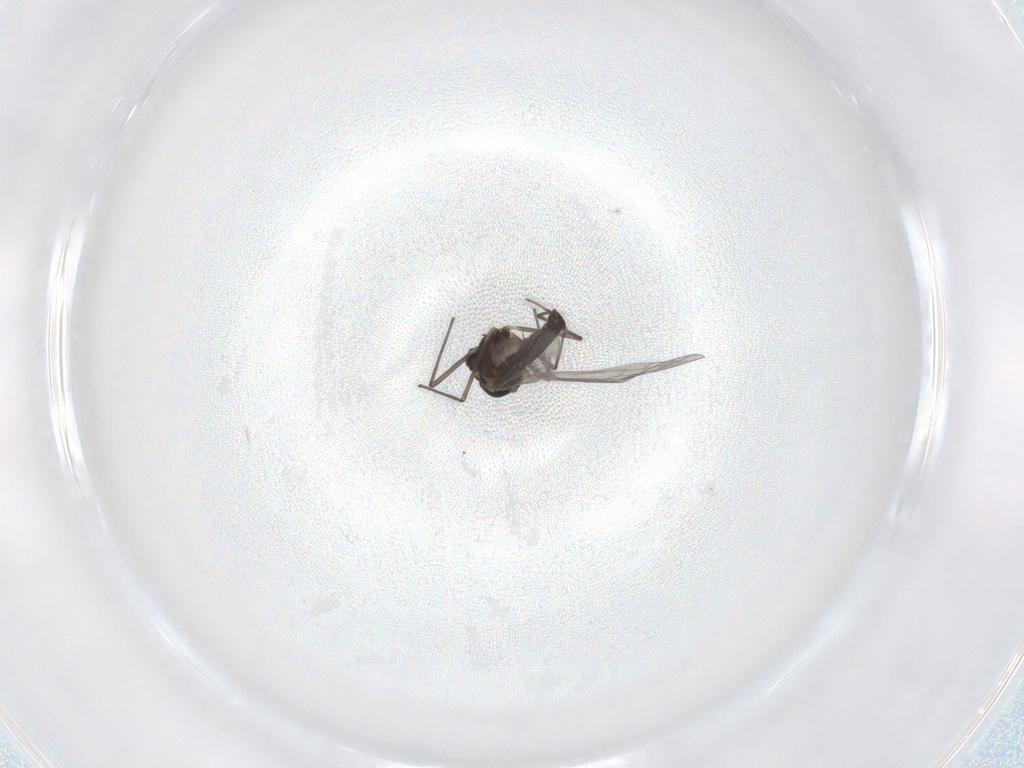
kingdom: Animalia
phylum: Arthropoda
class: Insecta
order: Diptera
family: Chironomidae
